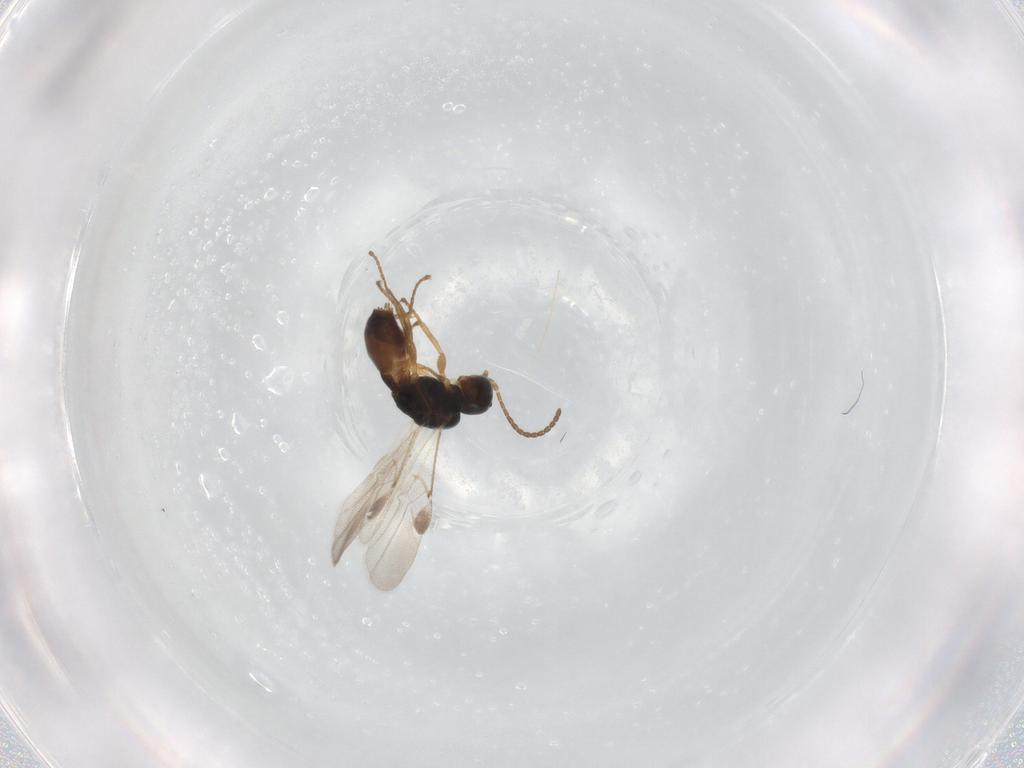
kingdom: Animalia
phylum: Arthropoda
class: Insecta
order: Hymenoptera
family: Braconidae
